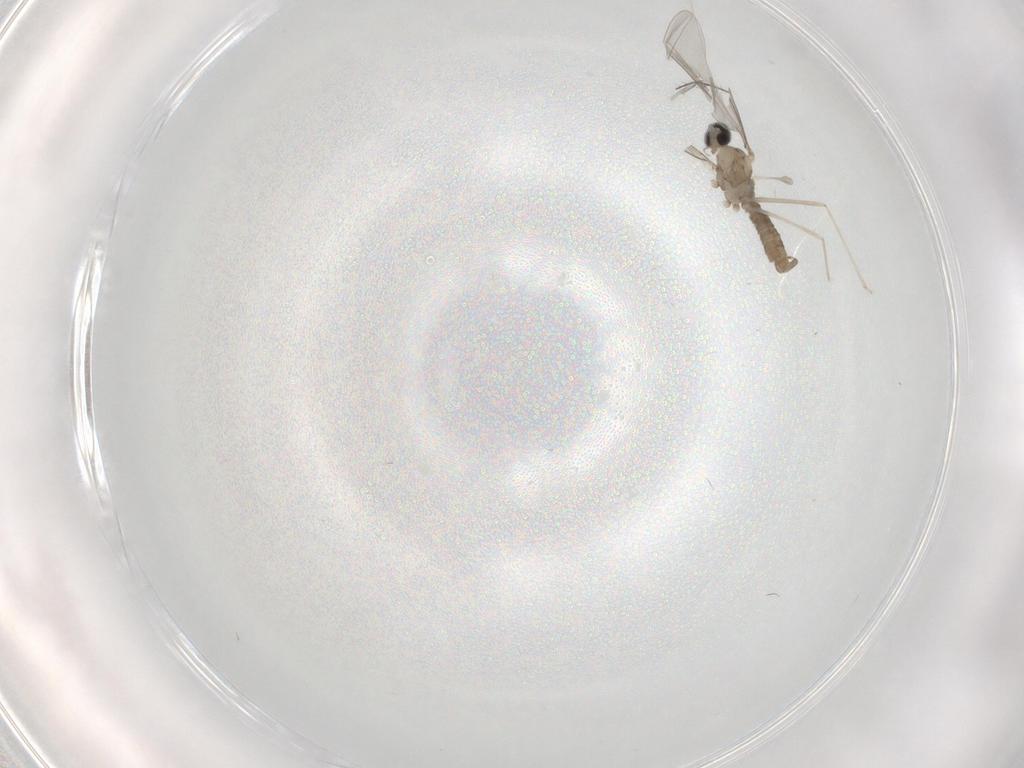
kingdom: Animalia
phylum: Arthropoda
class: Insecta
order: Diptera
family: Cecidomyiidae
